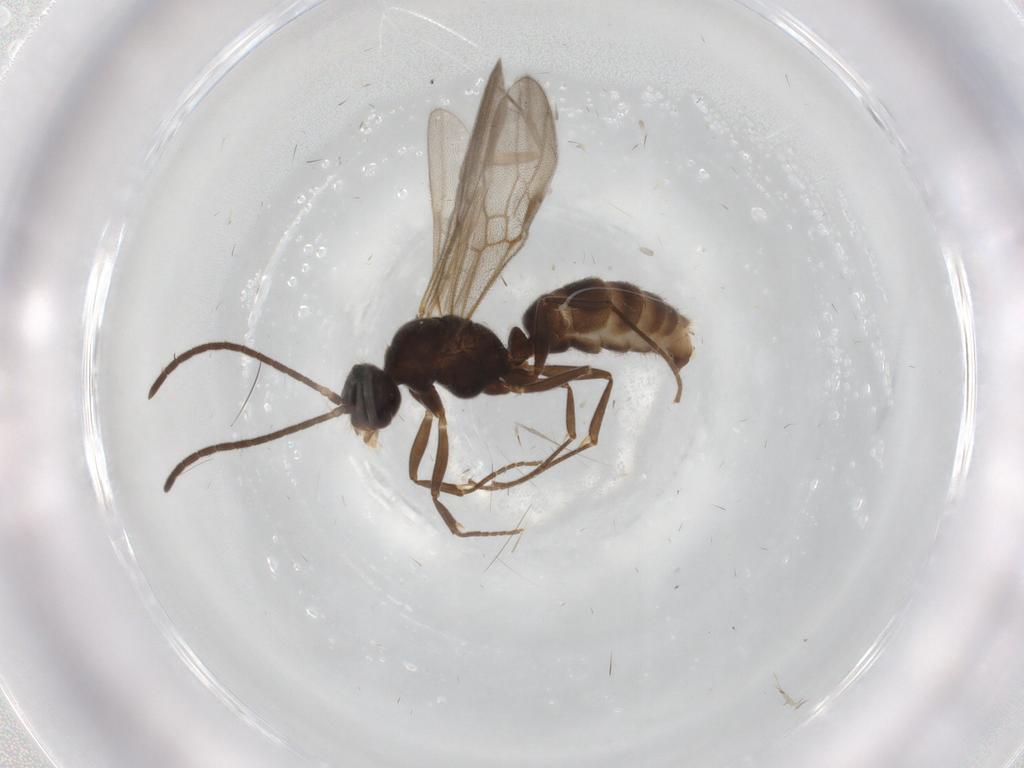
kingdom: Animalia
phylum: Arthropoda
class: Insecta
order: Hymenoptera
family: Formicidae
